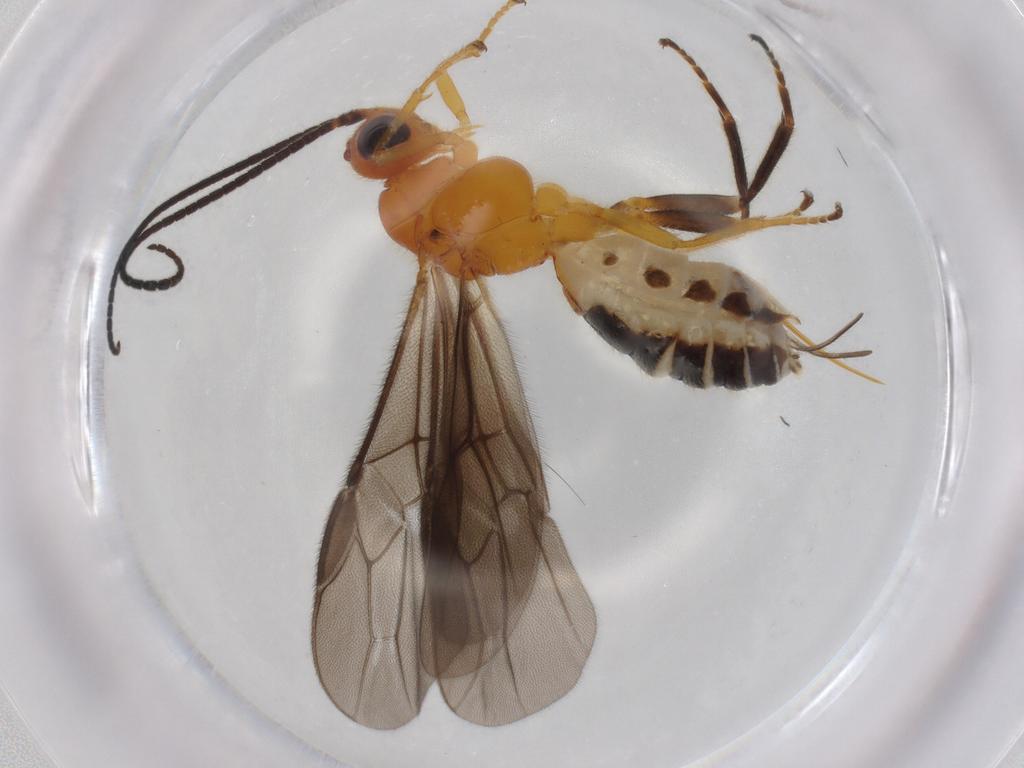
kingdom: Animalia
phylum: Arthropoda
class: Insecta
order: Hymenoptera
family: Braconidae
